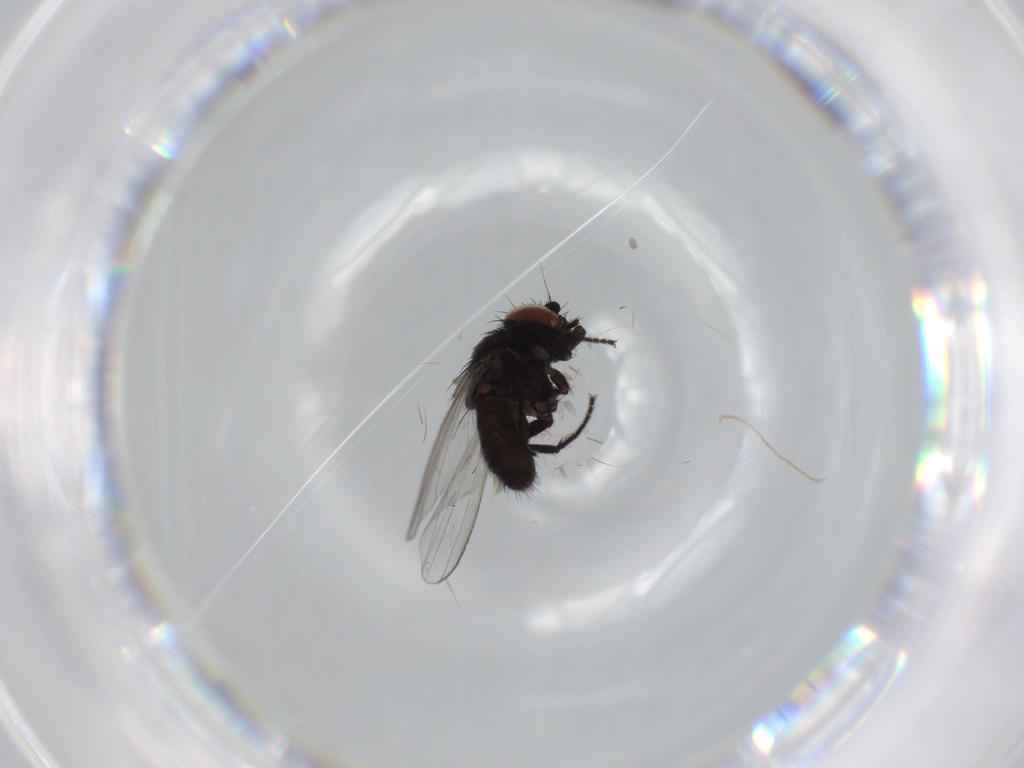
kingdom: Animalia
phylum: Arthropoda
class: Insecta
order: Diptera
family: Milichiidae
